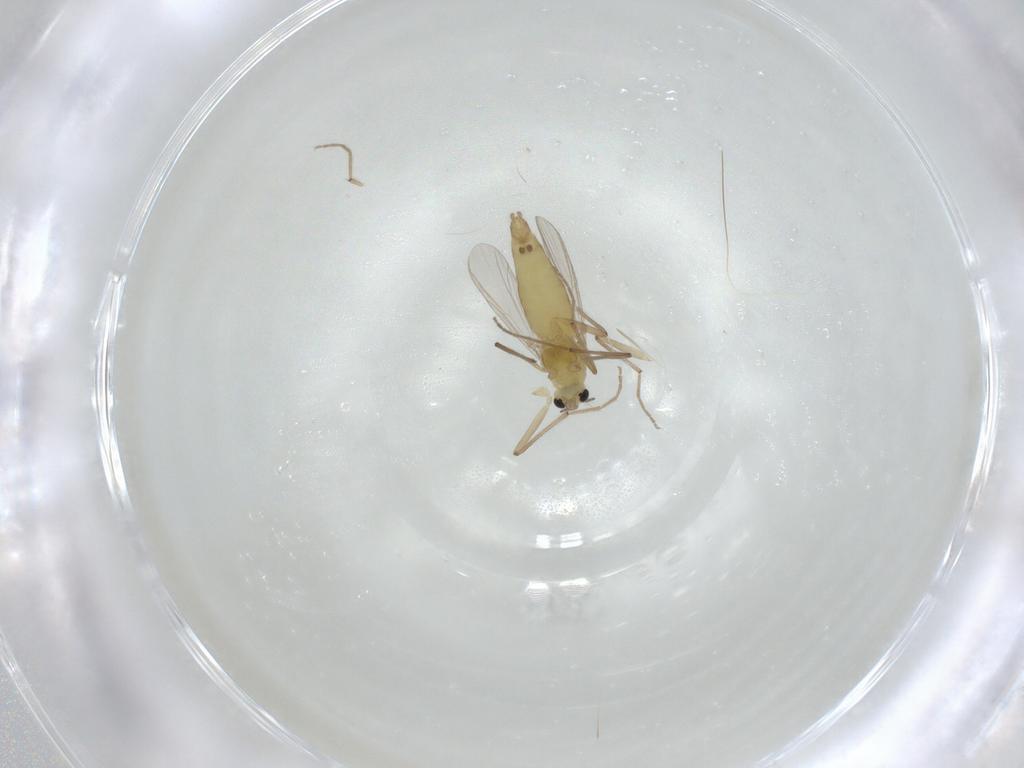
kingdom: Animalia
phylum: Arthropoda
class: Insecta
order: Diptera
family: Chironomidae
